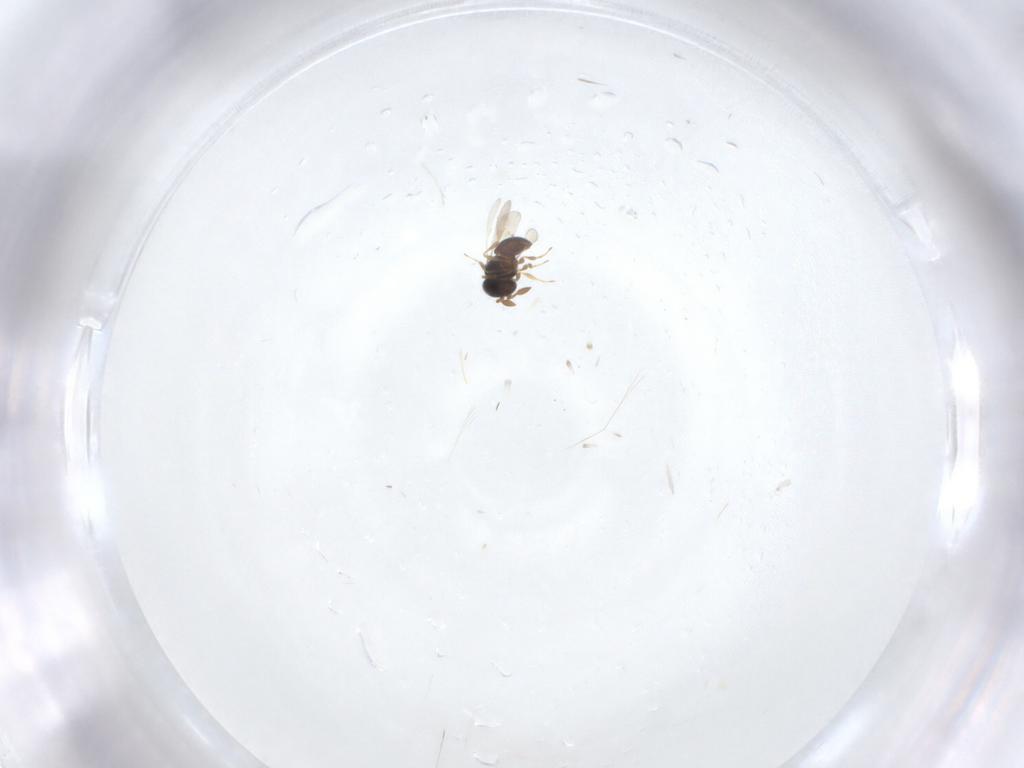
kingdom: Animalia
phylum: Arthropoda
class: Insecta
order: Hymenoptera
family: Scelionidae
